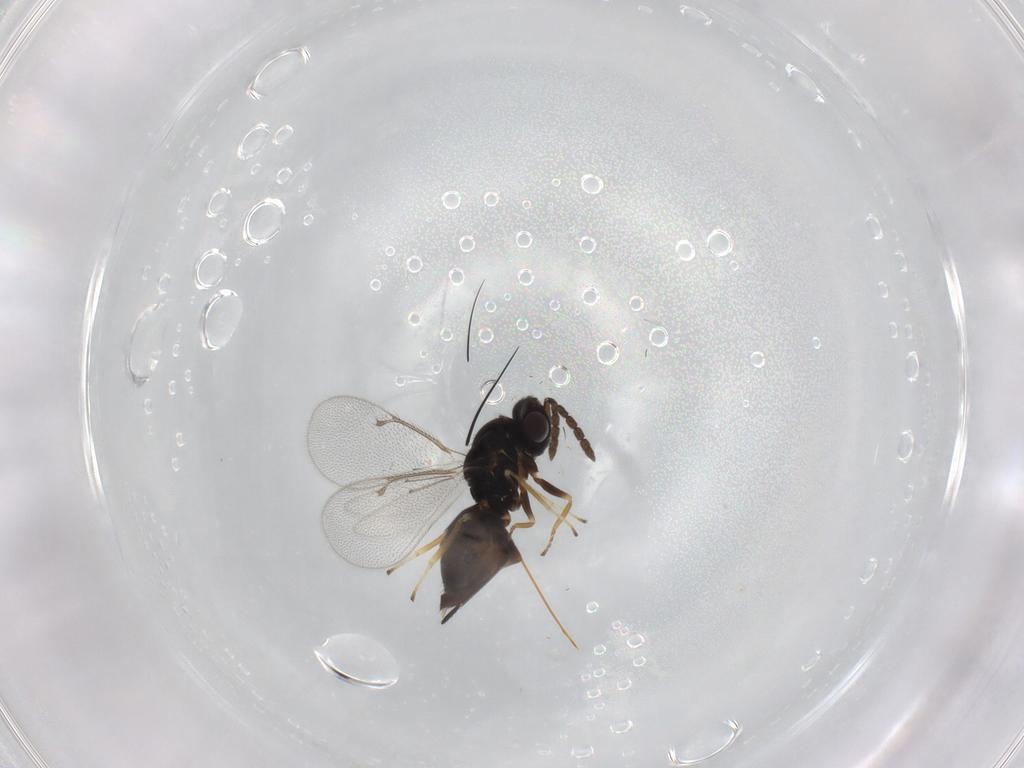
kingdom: Animalia
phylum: Arthropoda
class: Insecta
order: Hymenoptera
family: Eulophidae
